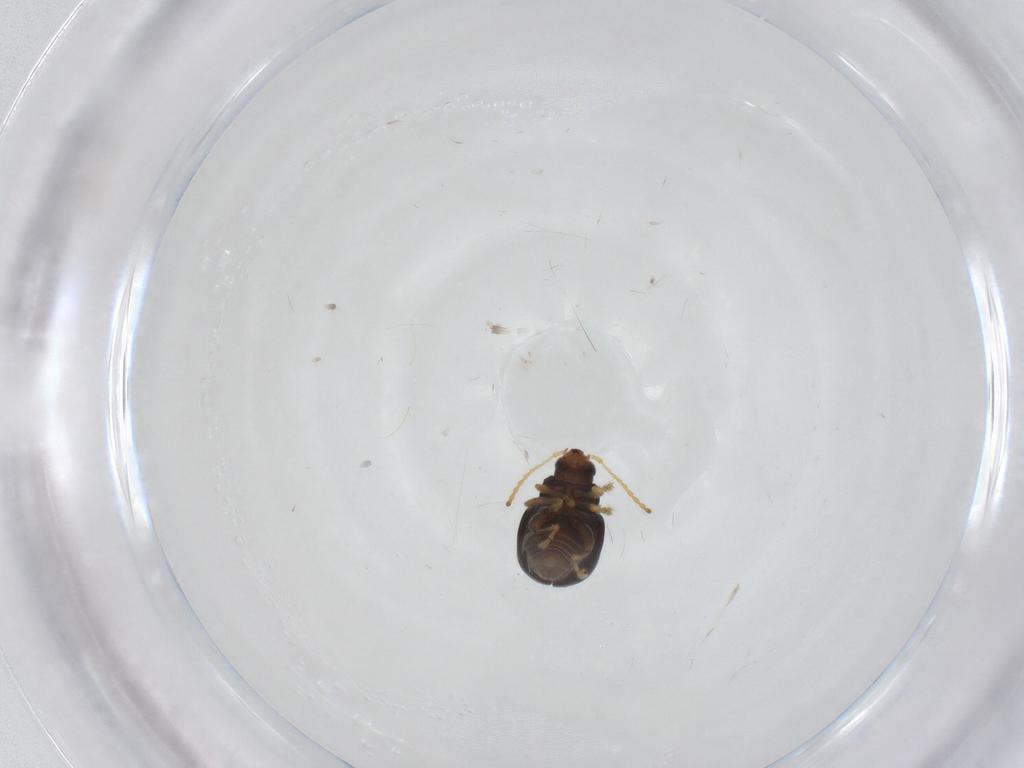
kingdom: Animalia
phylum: Arthropoda
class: Insecta
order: Coleoptera
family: Chrysomelidae
